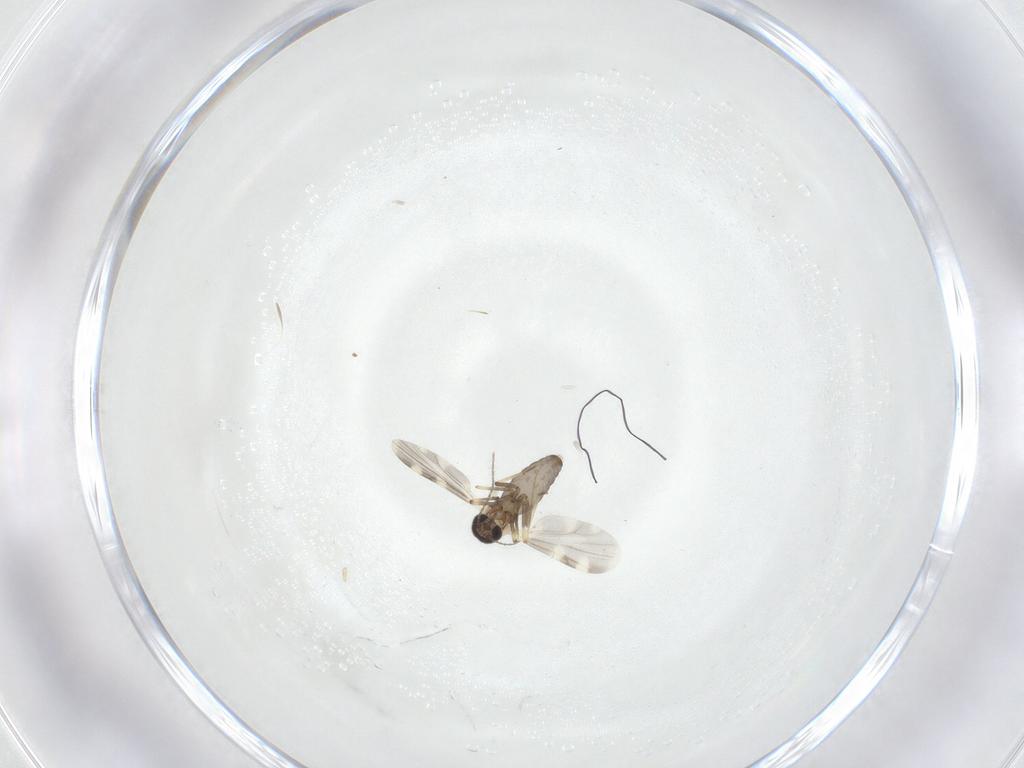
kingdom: Animalia
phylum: Arthropoda
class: Insecta
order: Diptera
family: Ceratopogonidae
